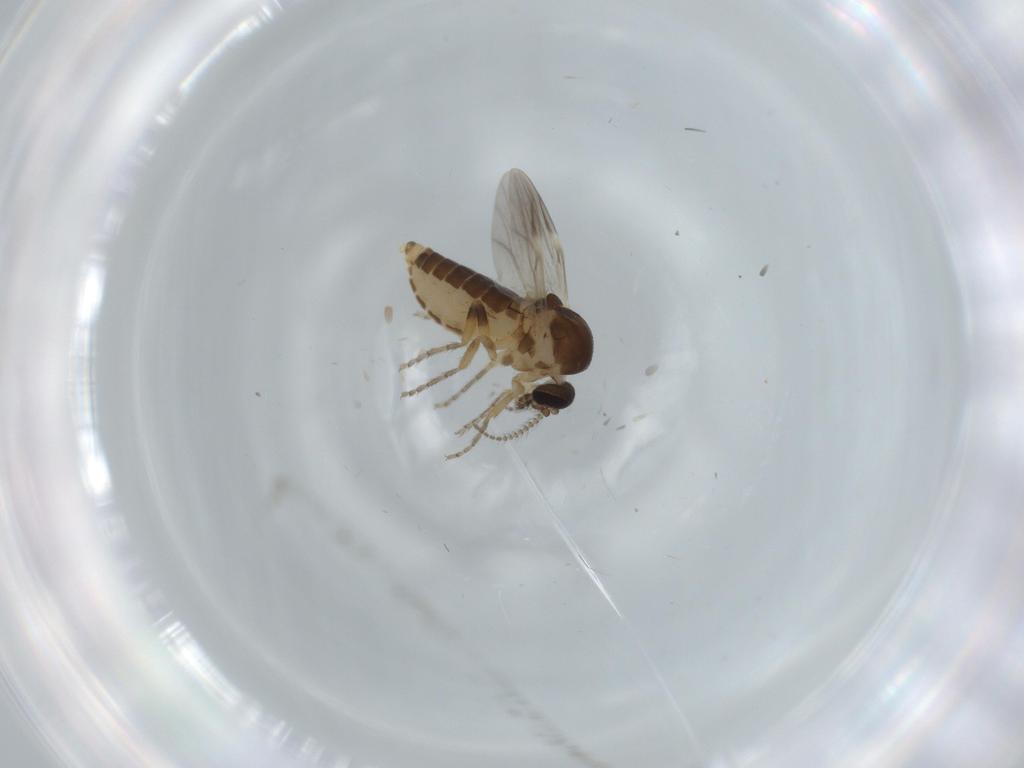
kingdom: Animalia
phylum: Arthropoda
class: Insecta
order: Diptera
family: Ceratopogonidae
